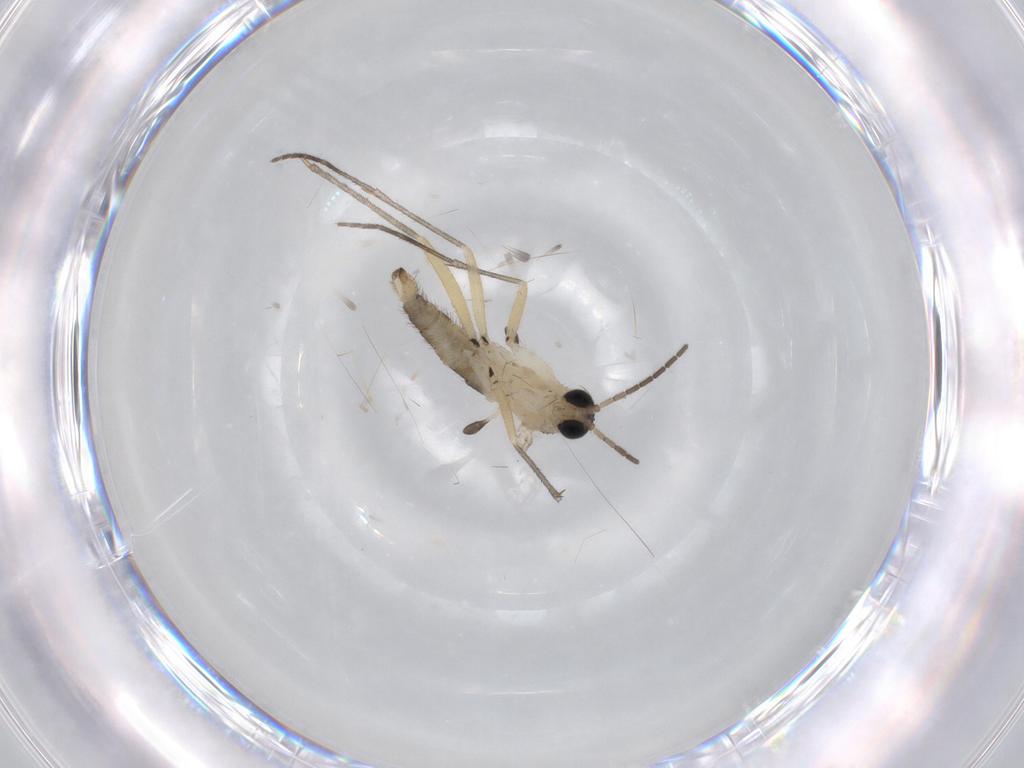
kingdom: Animalia
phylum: Arthropoda
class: Insecta
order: Diptera
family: Sciaridae
